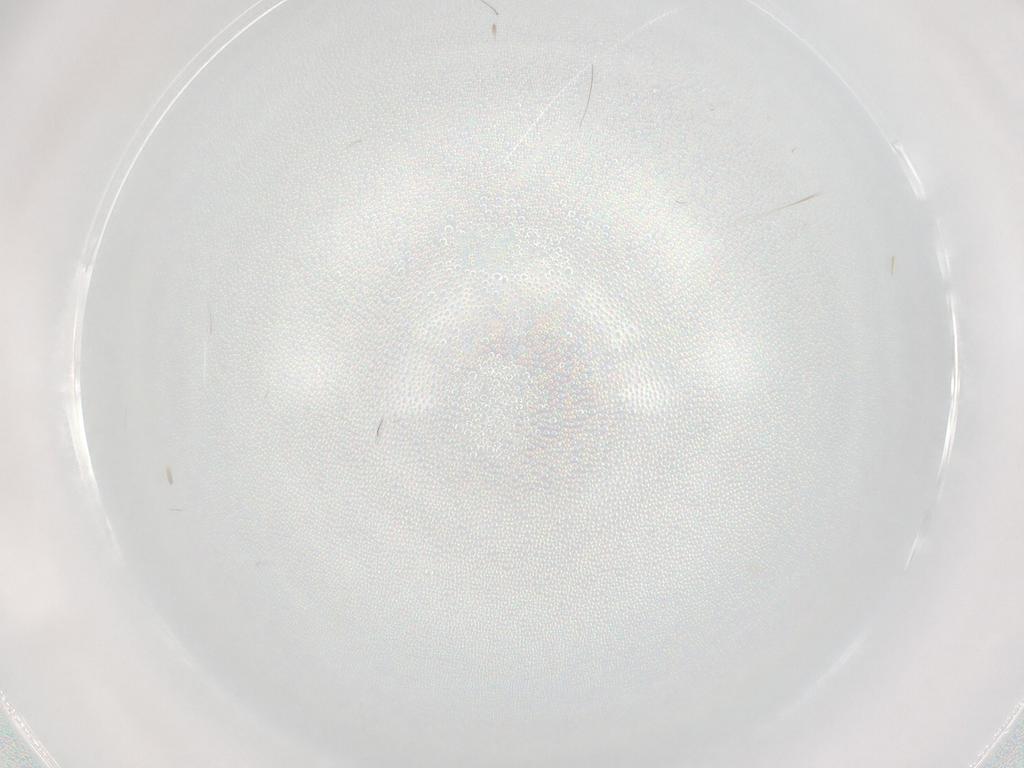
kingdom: Animalia
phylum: Arthropoda
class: Insecta
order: Diptera
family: Cecidomyiidae
